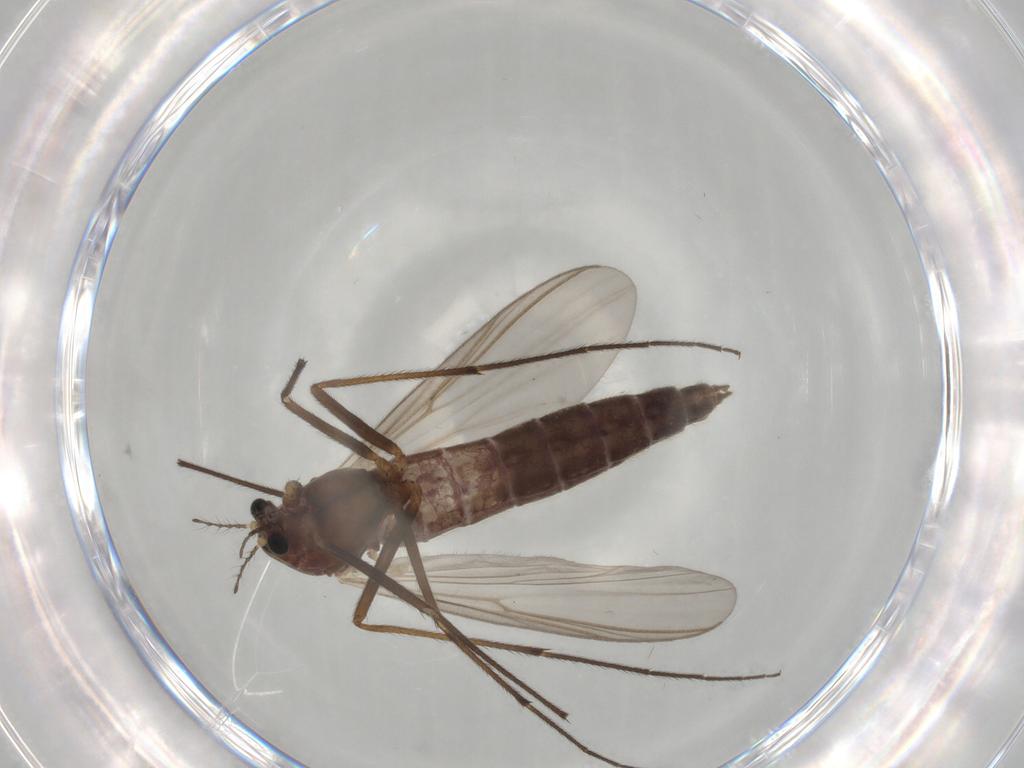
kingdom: Animalia
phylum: Arthropoda
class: Insecta
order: Diptera
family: Chironomidae
